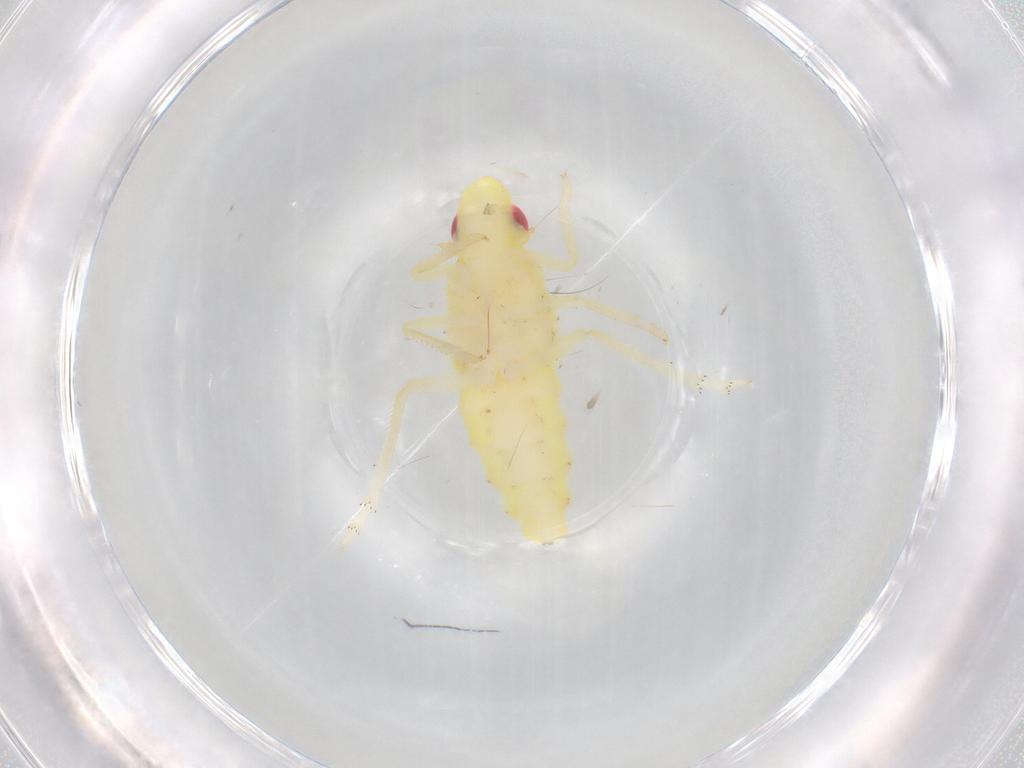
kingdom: Animalia
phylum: Arthropoda
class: Insecta
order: Hemiptera
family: Tropiduchidae
